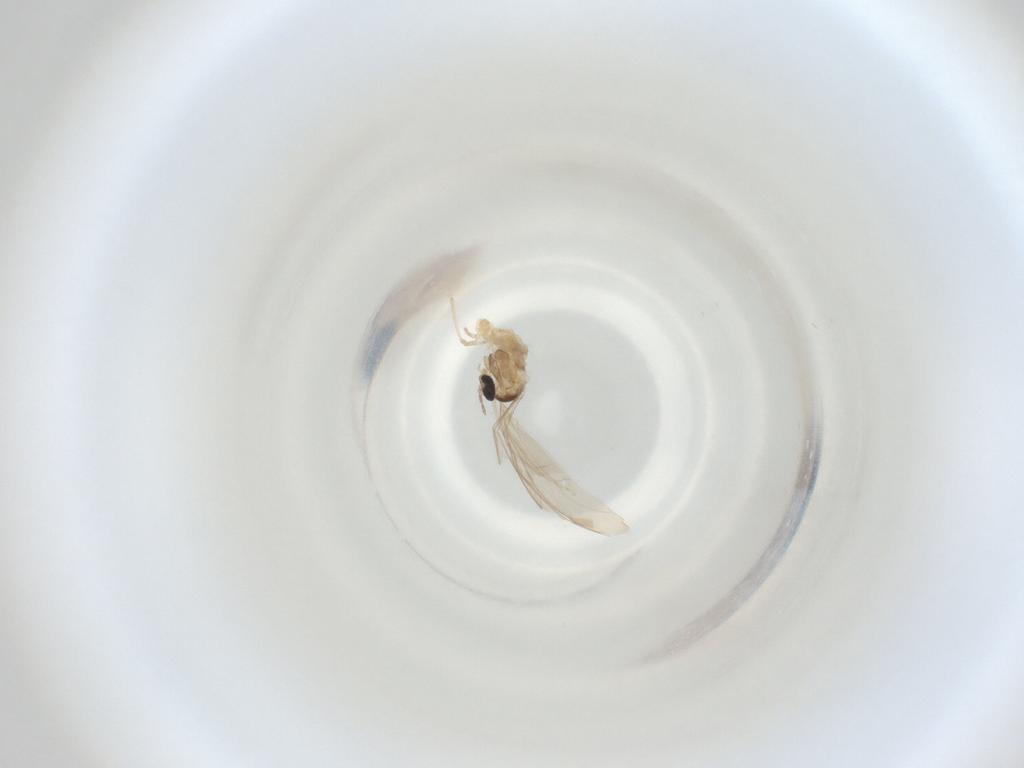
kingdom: Animalia
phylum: Arthropoda
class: Insecta
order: Diptera
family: Cecidomyiidae
